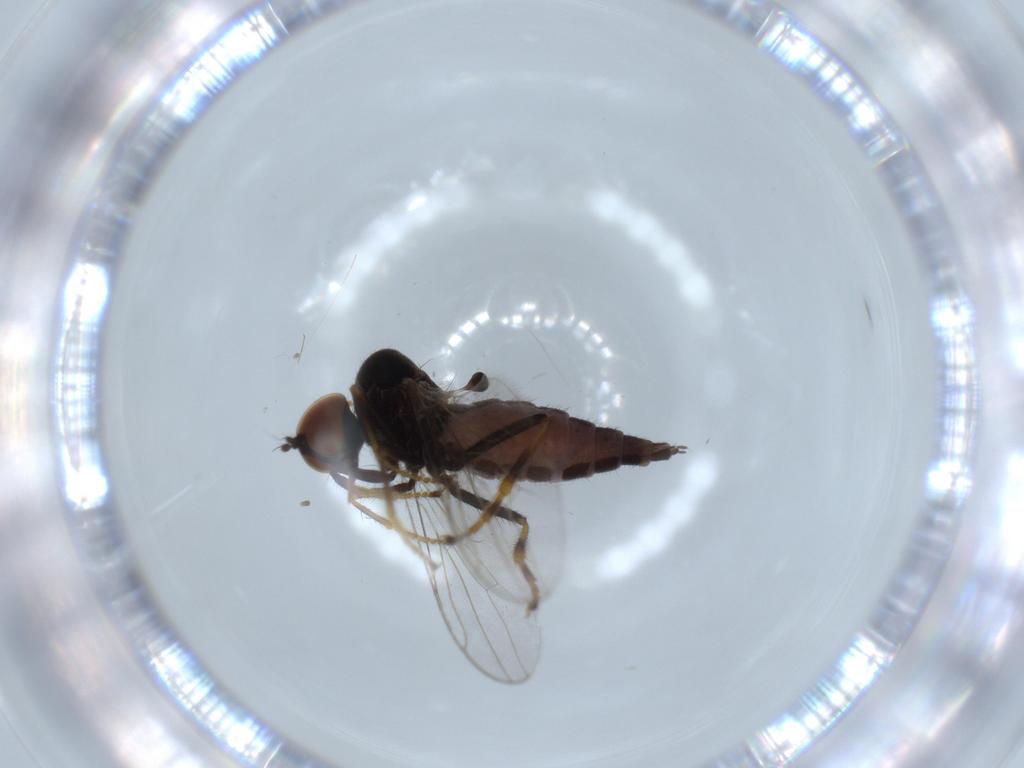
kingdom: Animalia
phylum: Arthropoda
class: Insecta
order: Diptera
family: Hybotidae
